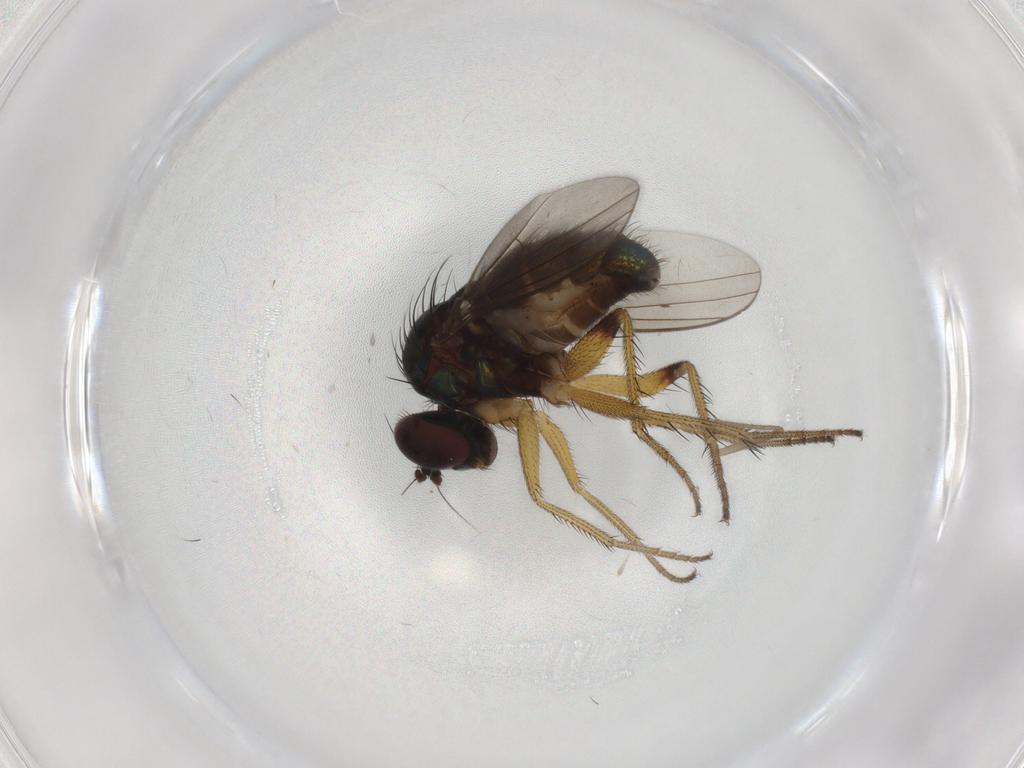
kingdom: Animalia
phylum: Arthropoda
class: Insecta
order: Diptera
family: Dolichopodidae
